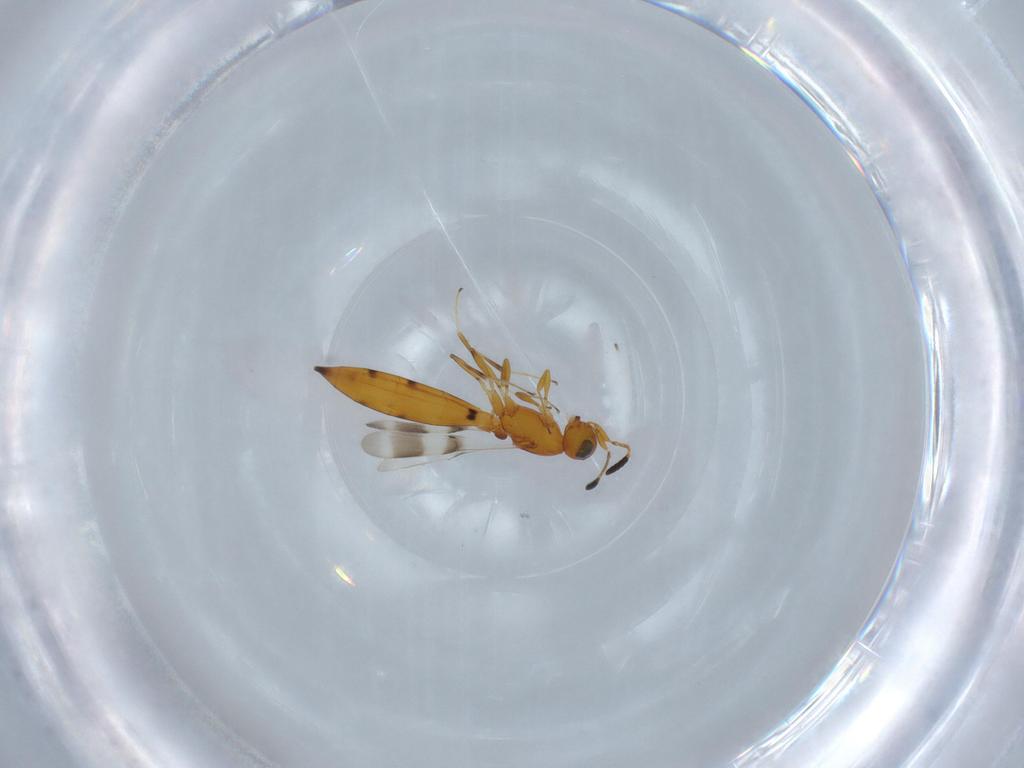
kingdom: Animalia
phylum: Arthropoda
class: Insecta
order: Hymenoptera
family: Scelionidae
